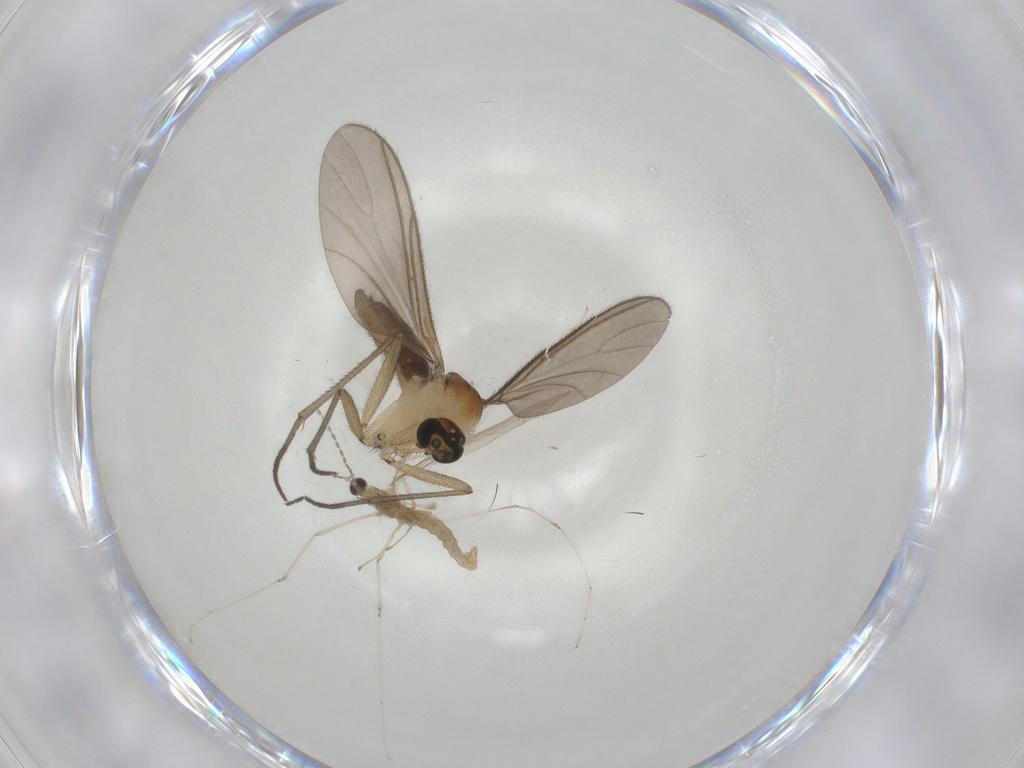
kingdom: Animalia
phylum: Arthropoda
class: Insecta
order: Diptera
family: Sciaridae
